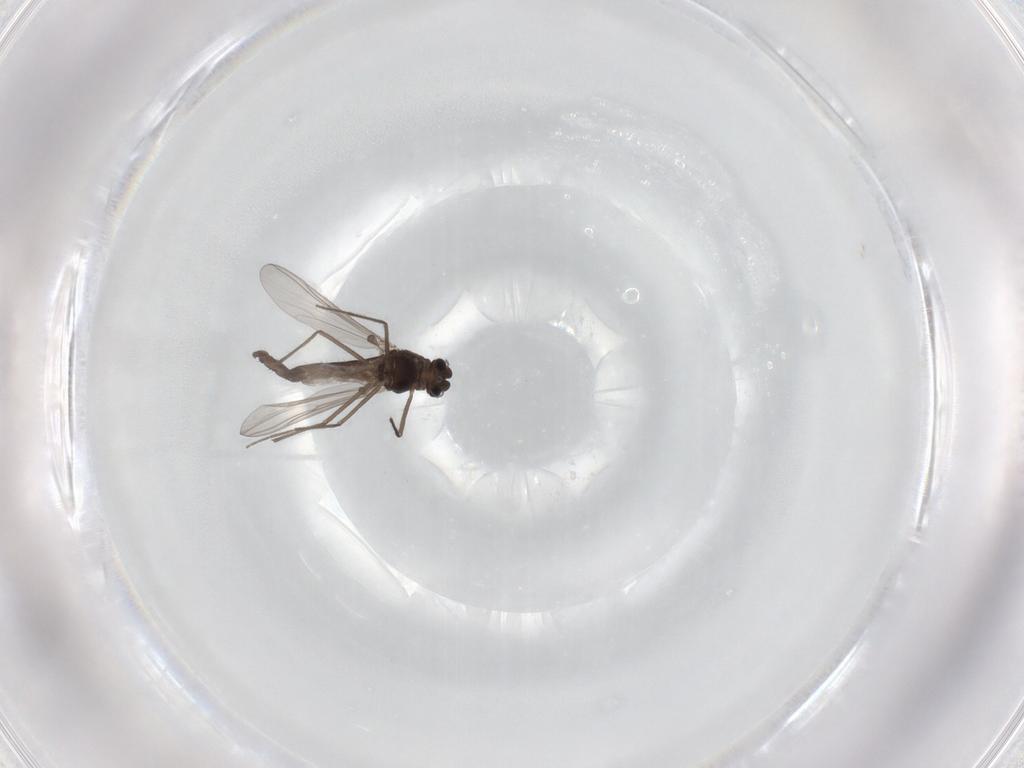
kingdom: Animalia
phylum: Arthropoda
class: Insecta
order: Diptera
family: Chironomidae
